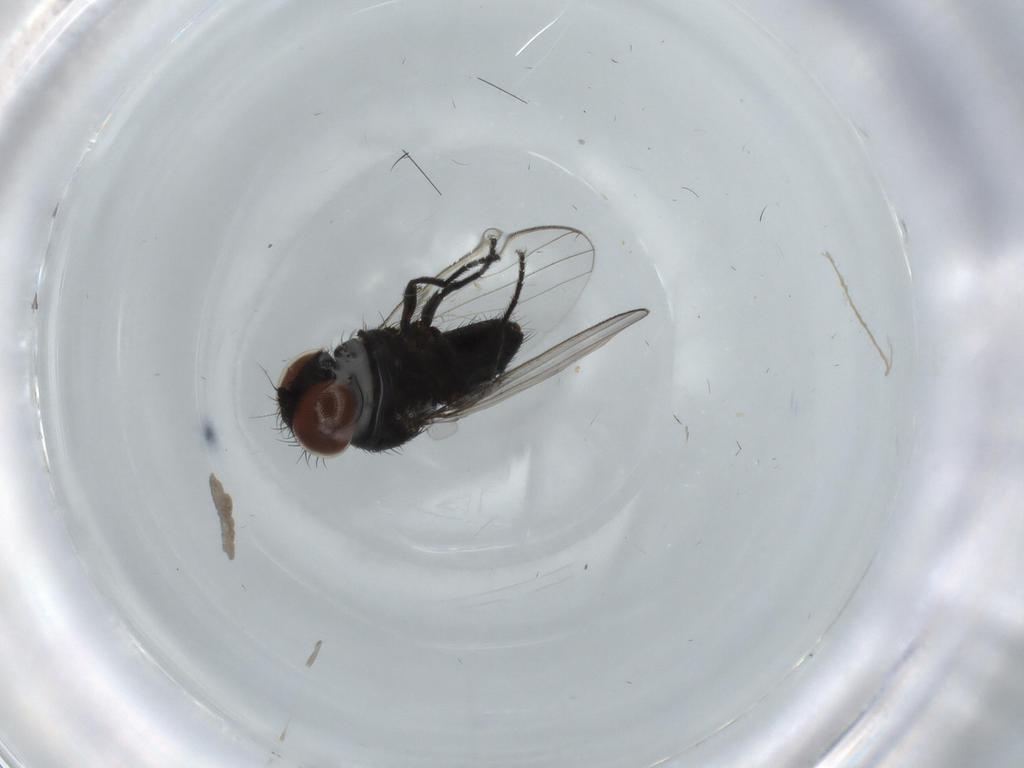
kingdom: Animalia
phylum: Arthropoda
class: Insecta
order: Diptera
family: Milichiidae
